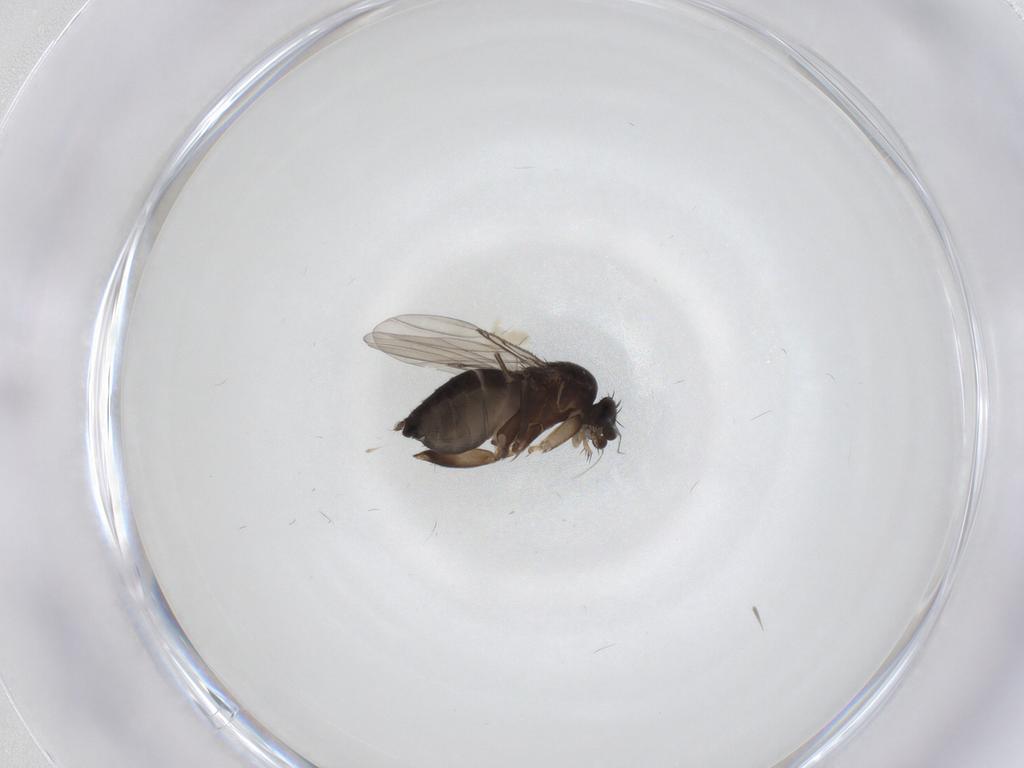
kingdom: Animalia
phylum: Arthropoda
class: Insecta
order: Diptera
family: Phoridae
